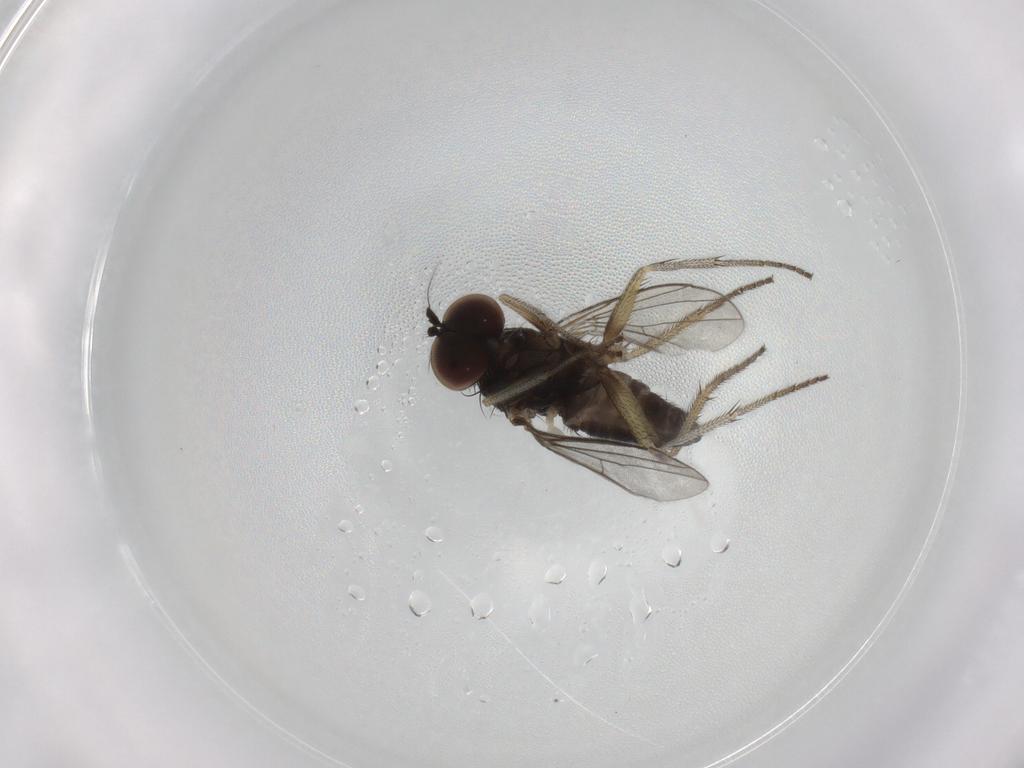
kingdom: Animalia
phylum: Arthropoda
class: Insecta
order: Diptera
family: Dolichopodidae
